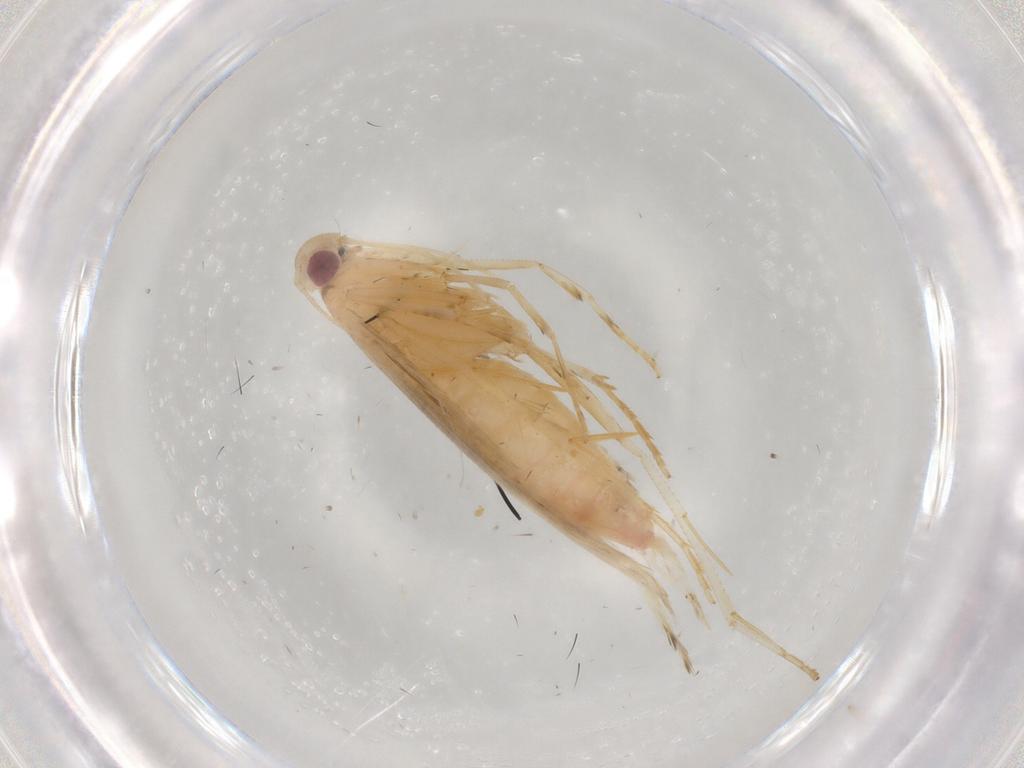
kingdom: Animalia
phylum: Arthropoda
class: Insecta
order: Lepidoptera
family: Cosmopterigidae
